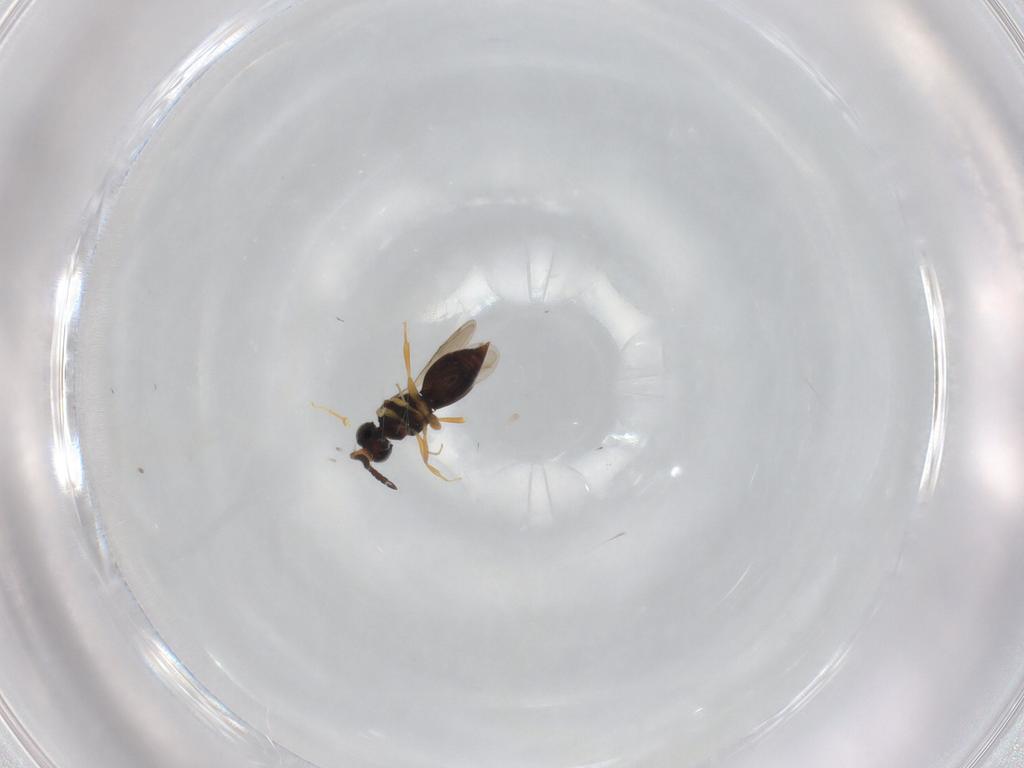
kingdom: Animalia
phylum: Arthropoda
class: Insecta
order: Hymenoptera
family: Eulophidae
